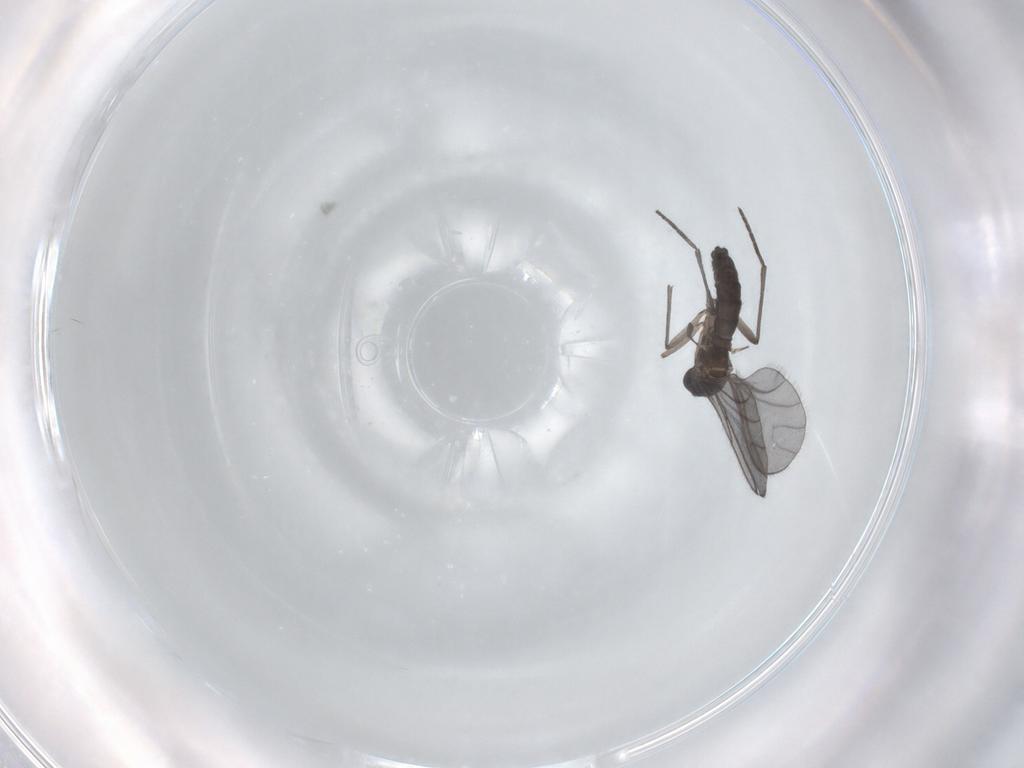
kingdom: Animalia
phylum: Arthropoda
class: Insecta
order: Diptera
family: Sciaridae
